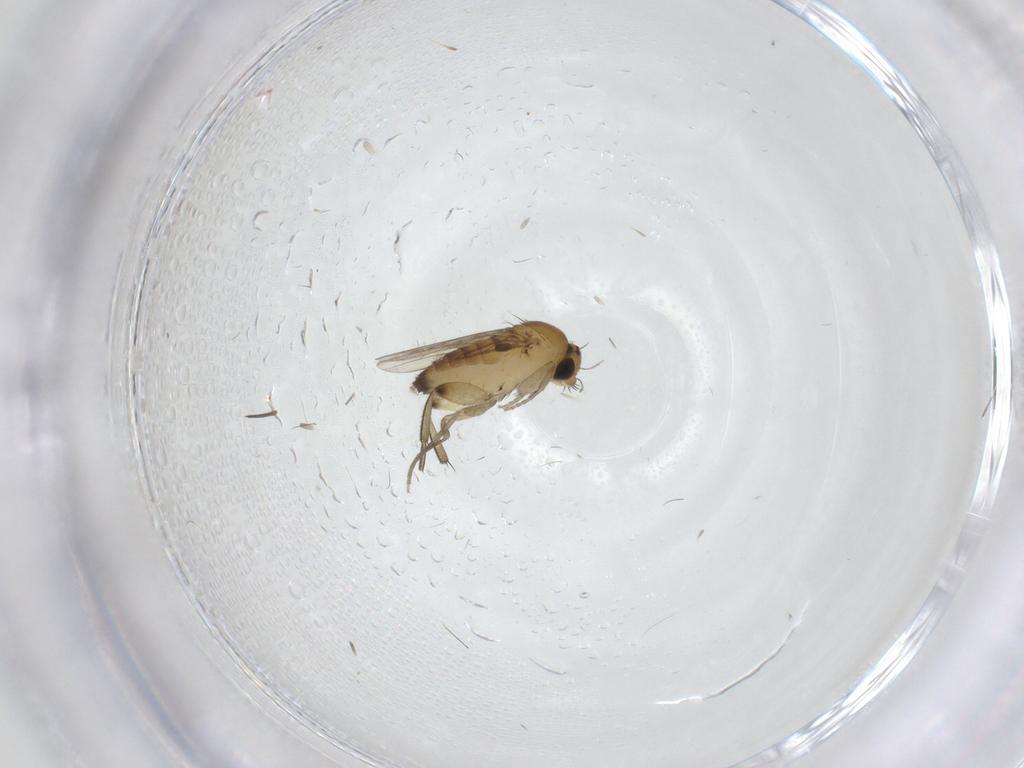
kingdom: Animalia
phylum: Arthropoda
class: Insecta
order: Diptera
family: Phoridae
